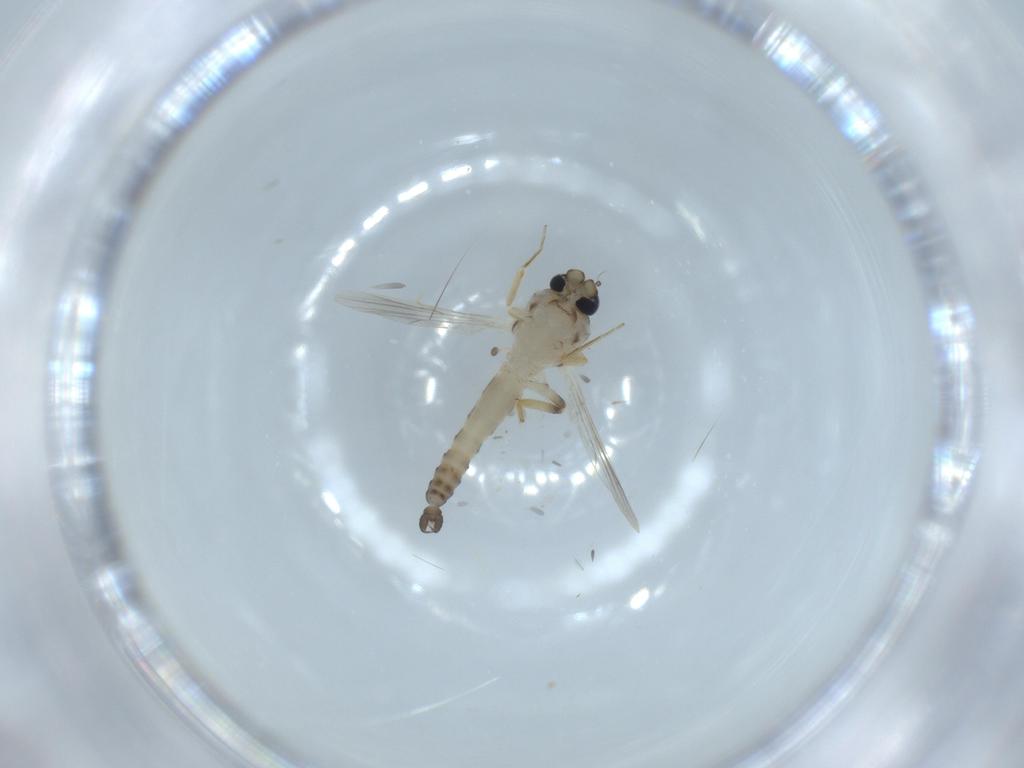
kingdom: Animalia
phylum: Arthropoda
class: Insecta
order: Diptera
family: Ceratopogonidae
